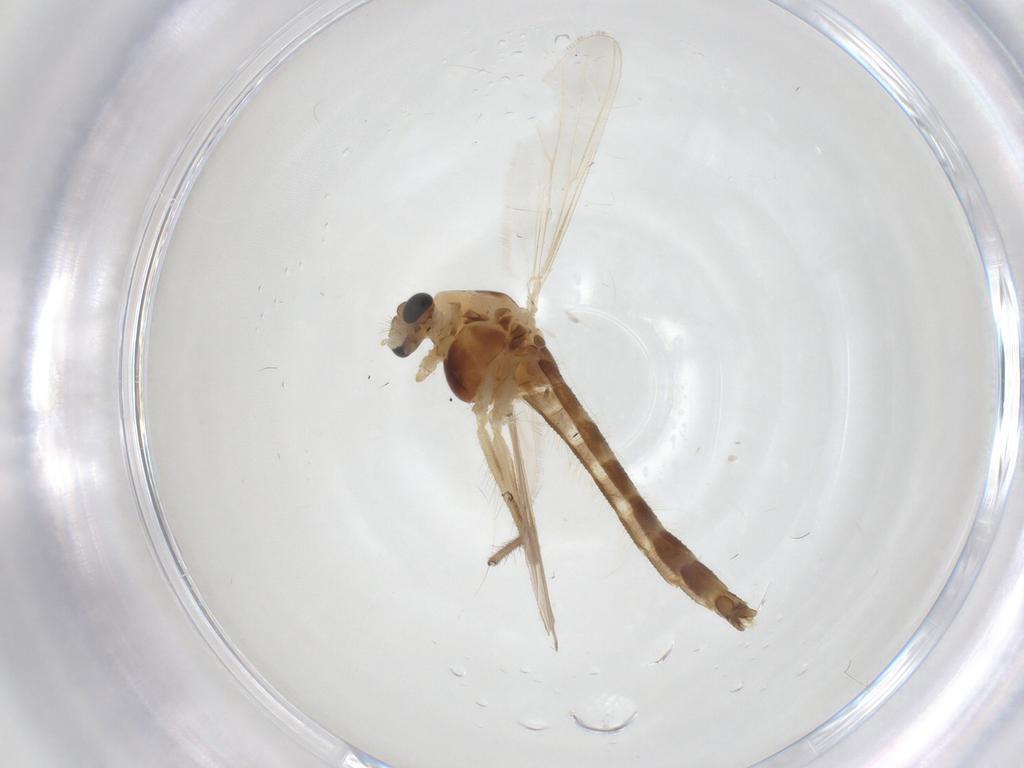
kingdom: Animalia
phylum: Arthropoda
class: Insecta
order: Diptera
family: Chironomidae
